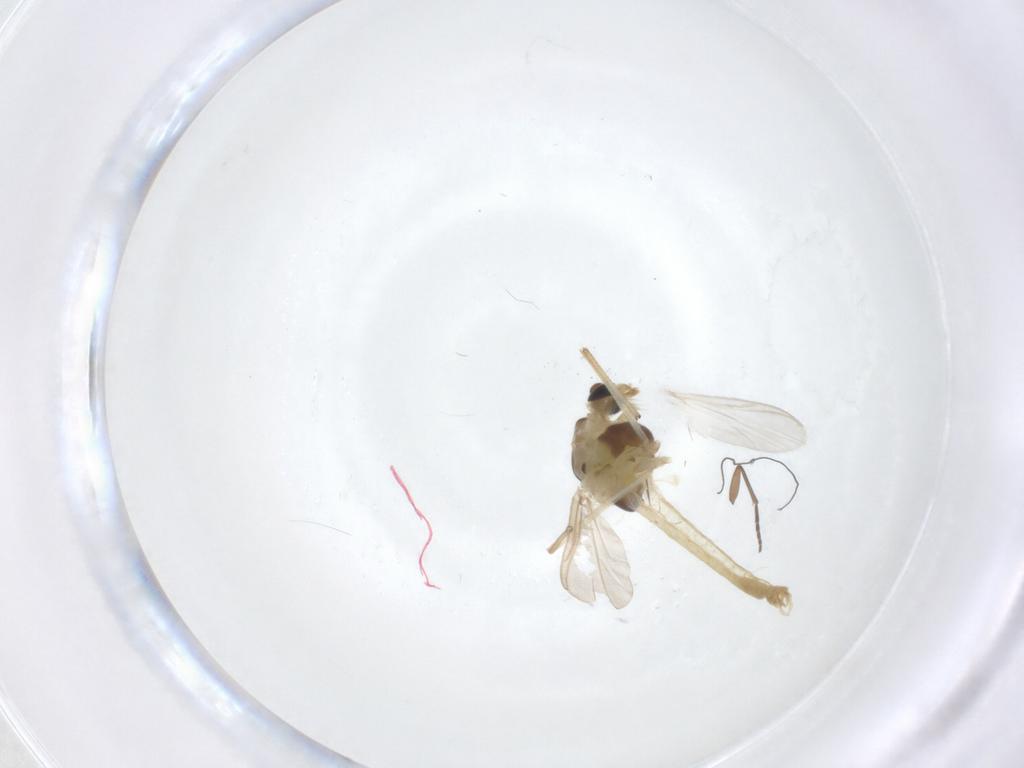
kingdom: Animalia
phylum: Arthropoda
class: Insecta
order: Diptera
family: Chironomidae
